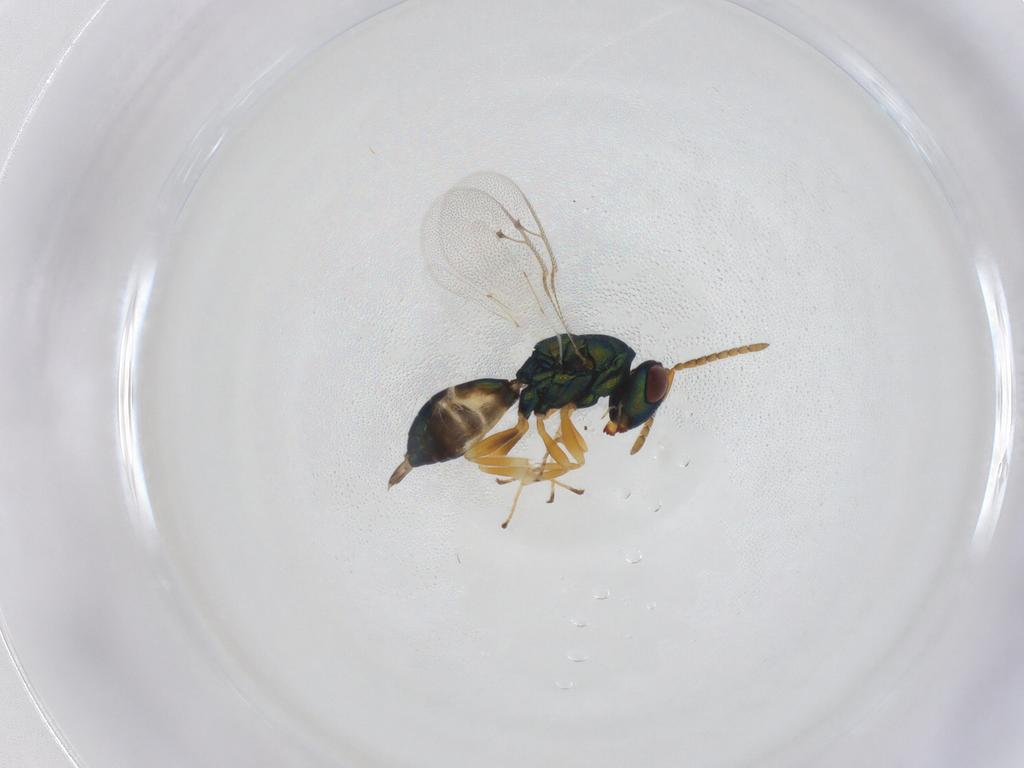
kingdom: Animalia
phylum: Arthropoda
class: Insecta
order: Hymenoptera
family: Pteromalidae
